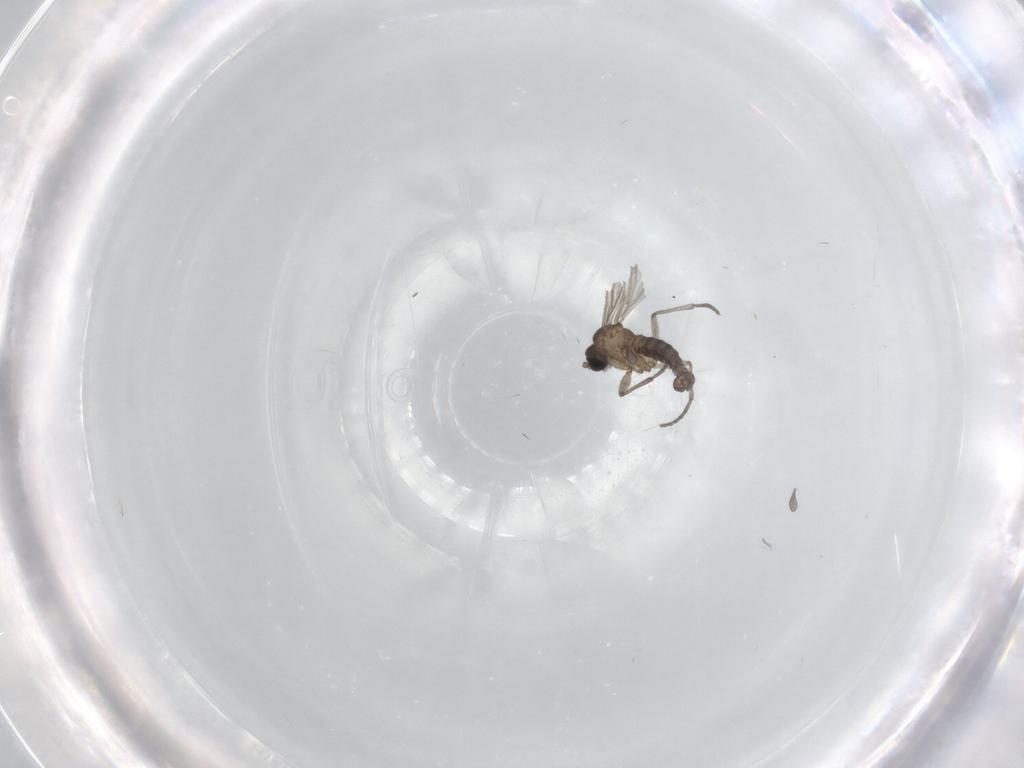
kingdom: Animalia
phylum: Arthropoda
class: Insecta
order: Diptera
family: Sciaridae
